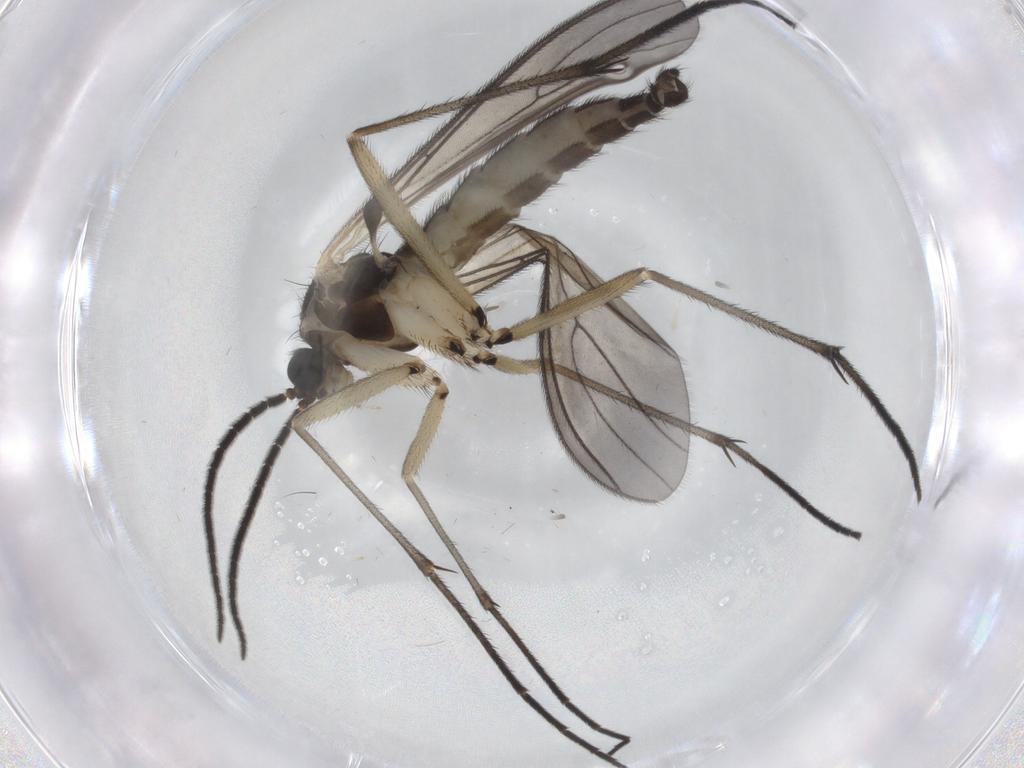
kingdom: Animalia
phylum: Arthropoda
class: Insecta
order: Diptera
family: Sciaridae
